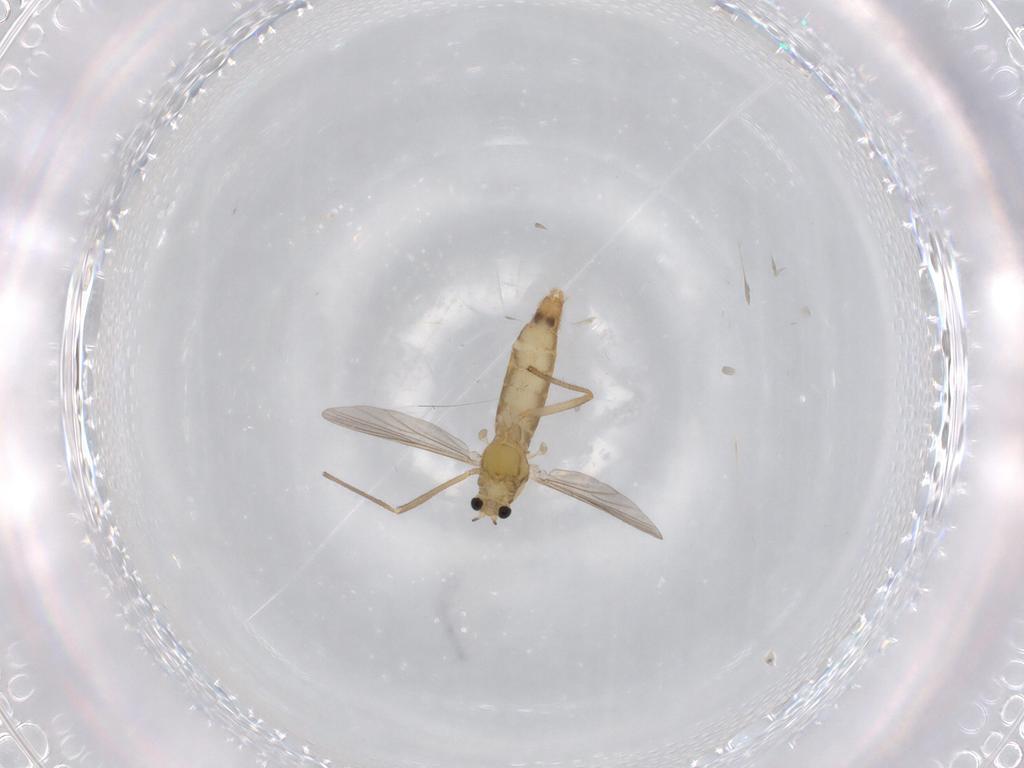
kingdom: Animalia
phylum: Arthropoda
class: Insecta
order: Diptera
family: Chironomidae
